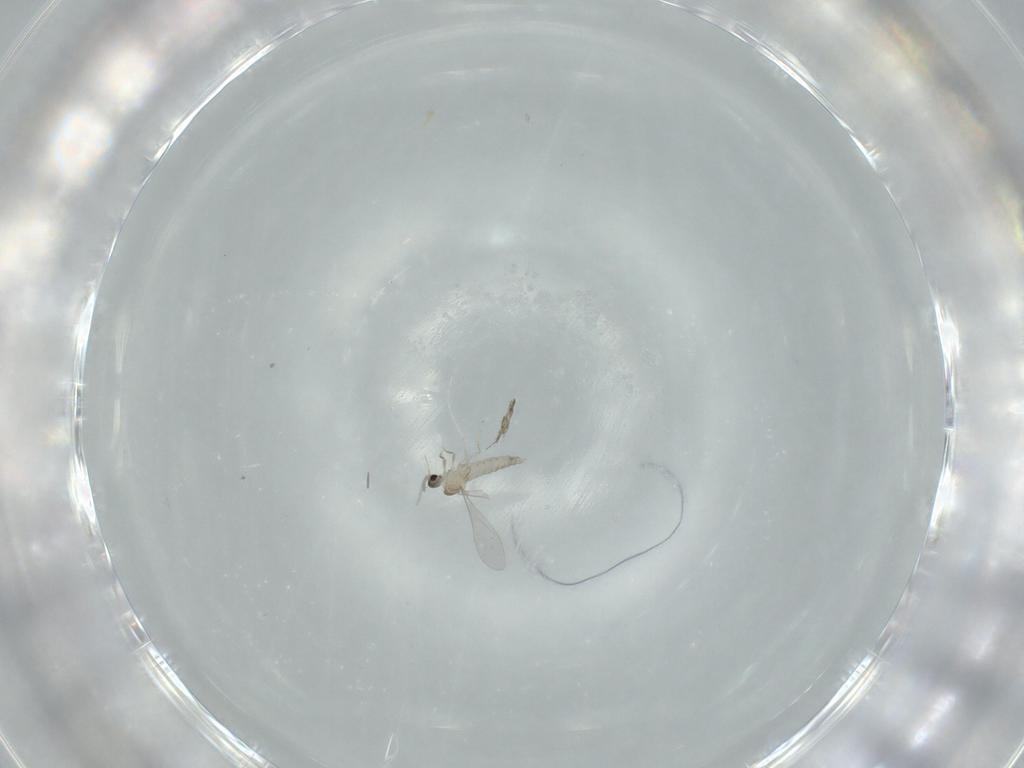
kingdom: Animalia
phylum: Arthropoda
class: Insecta
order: Diptera
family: Cecidomyiidae
